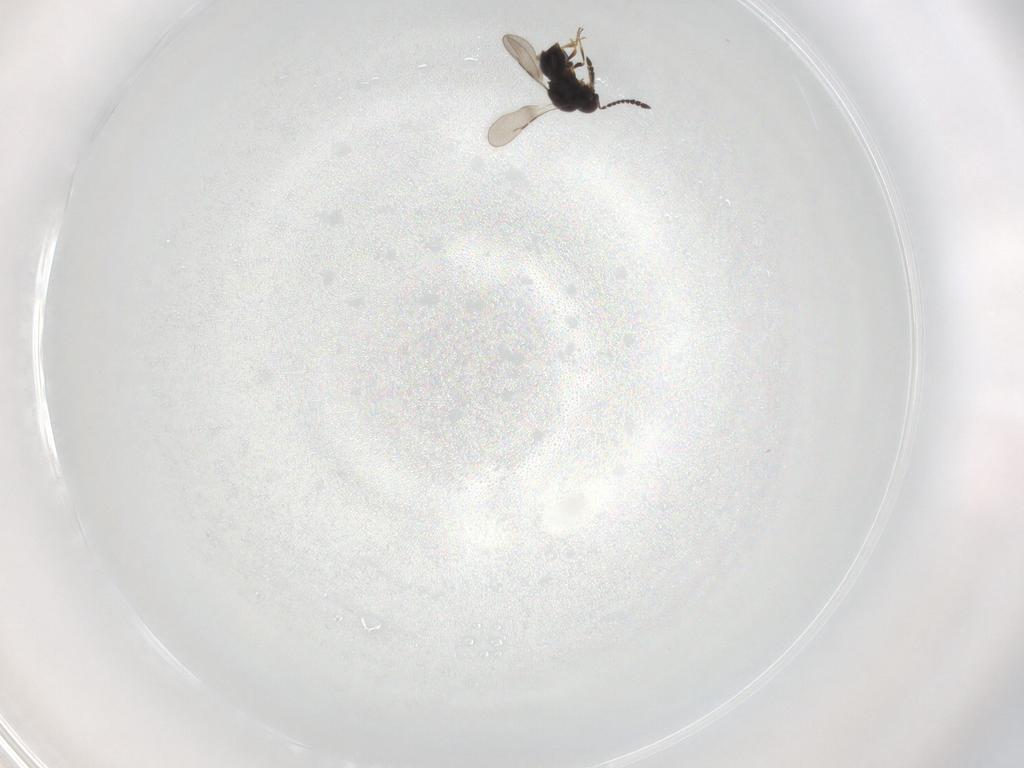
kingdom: Animalia
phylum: Arthropoda
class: Insecta
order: Hymenoptera
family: Ceraphronidae
